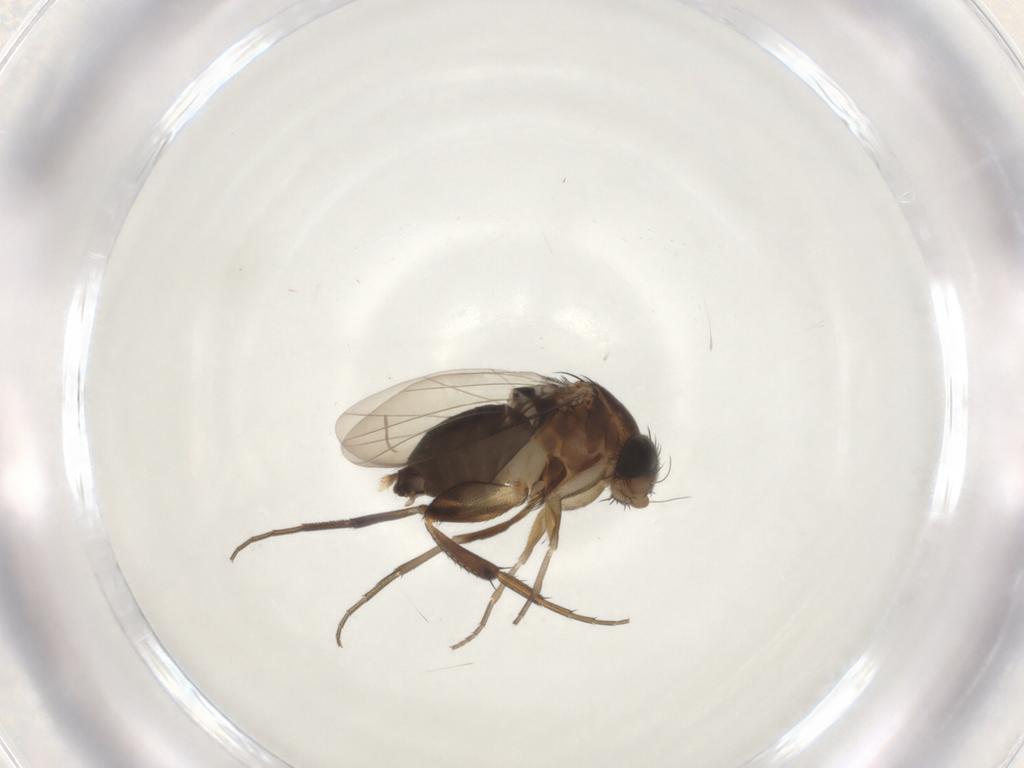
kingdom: Animalia
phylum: Arthropoda
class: Insecta
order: Diptera
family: Phoridae
